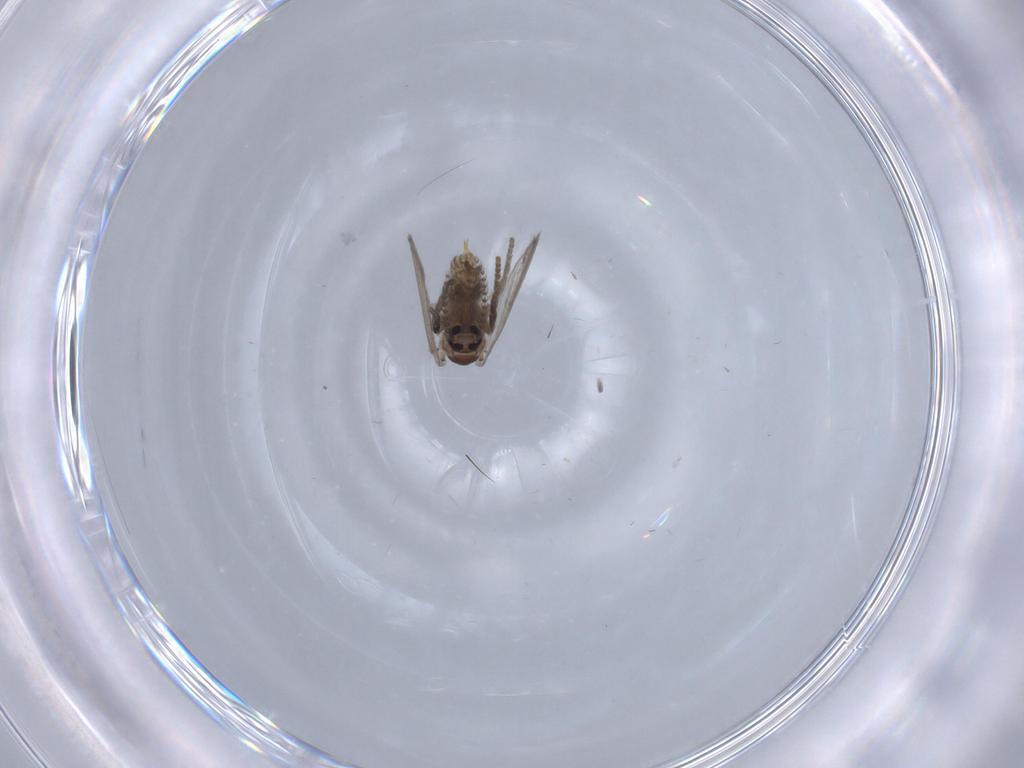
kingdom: Animalia
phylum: Arthropoda
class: Insecta
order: Diptera
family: Psychodidae
